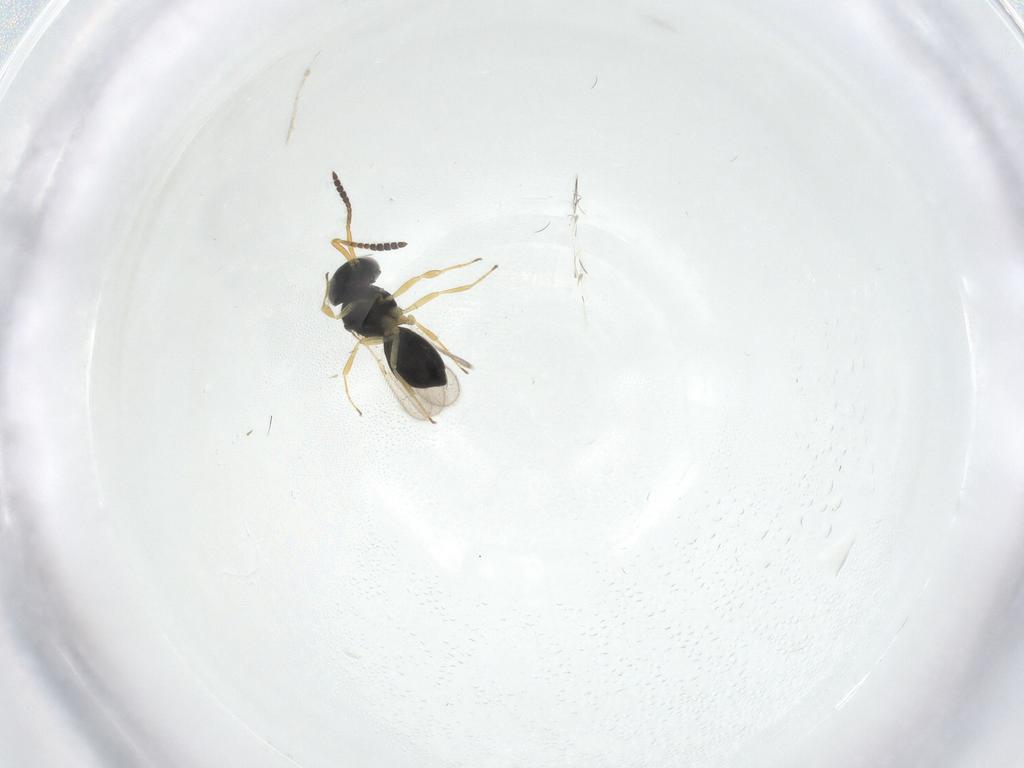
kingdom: Animalia
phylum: Arthropoda
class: Insecta
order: Hymenoptera
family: Scelionidae
